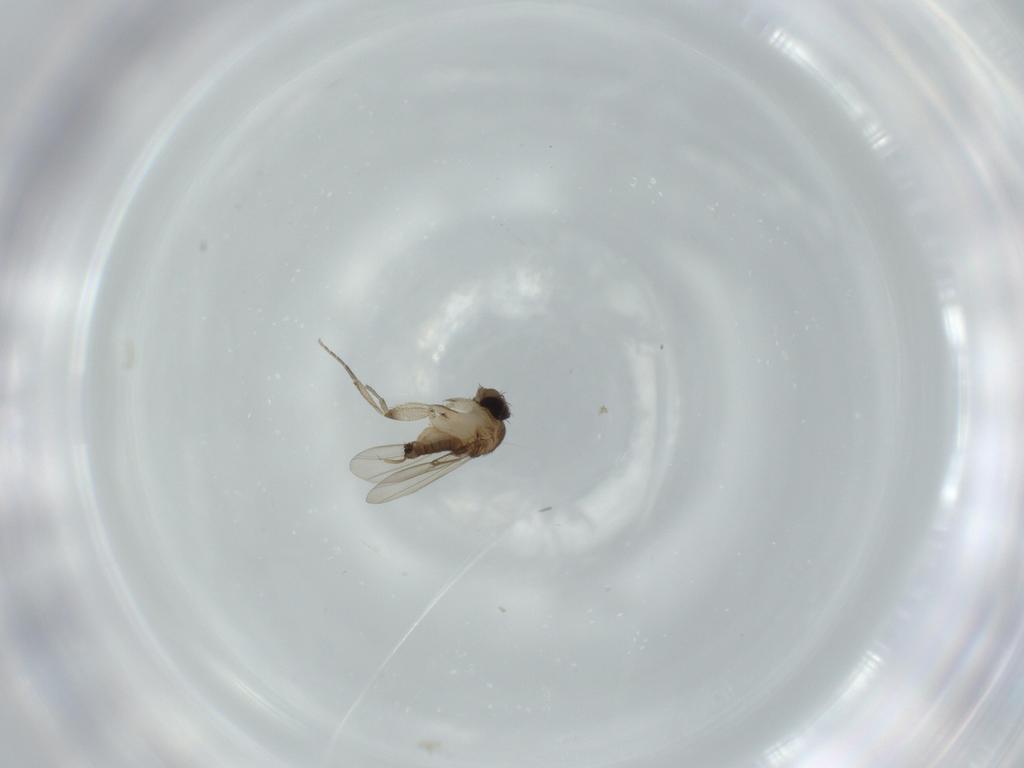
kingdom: Animalia
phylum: Arthropoda
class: Insecta
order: Diptera
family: Phoridae
